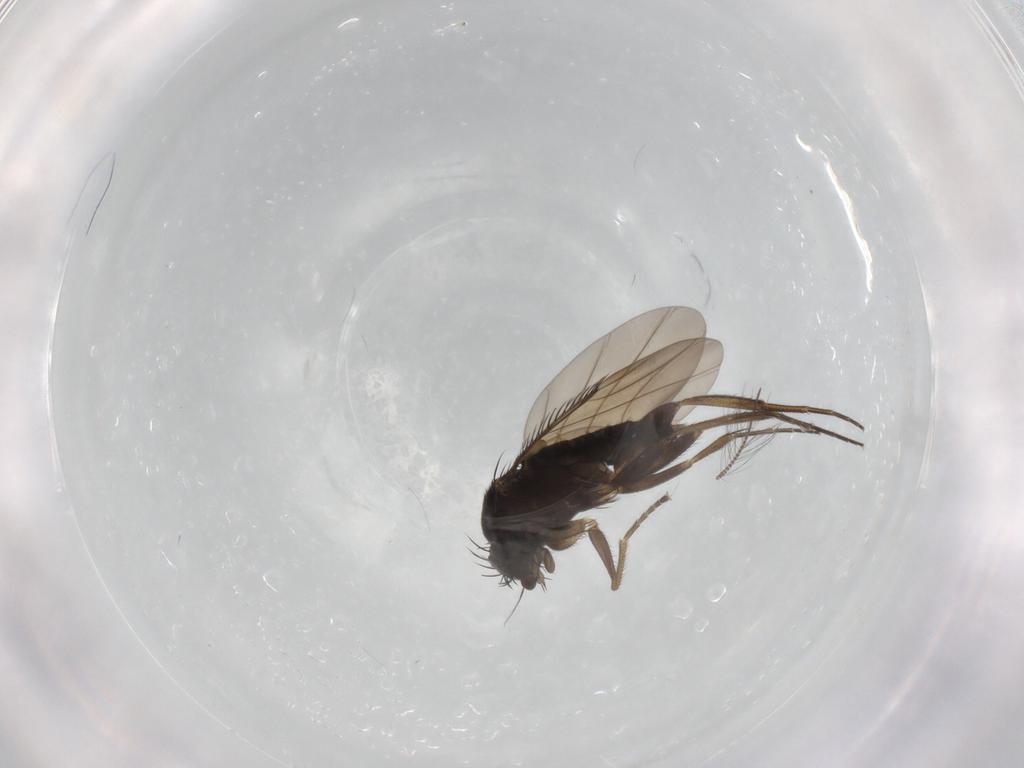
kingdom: Animalia
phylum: Arthropoda
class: Insecta
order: Diptera
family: Phoridae
